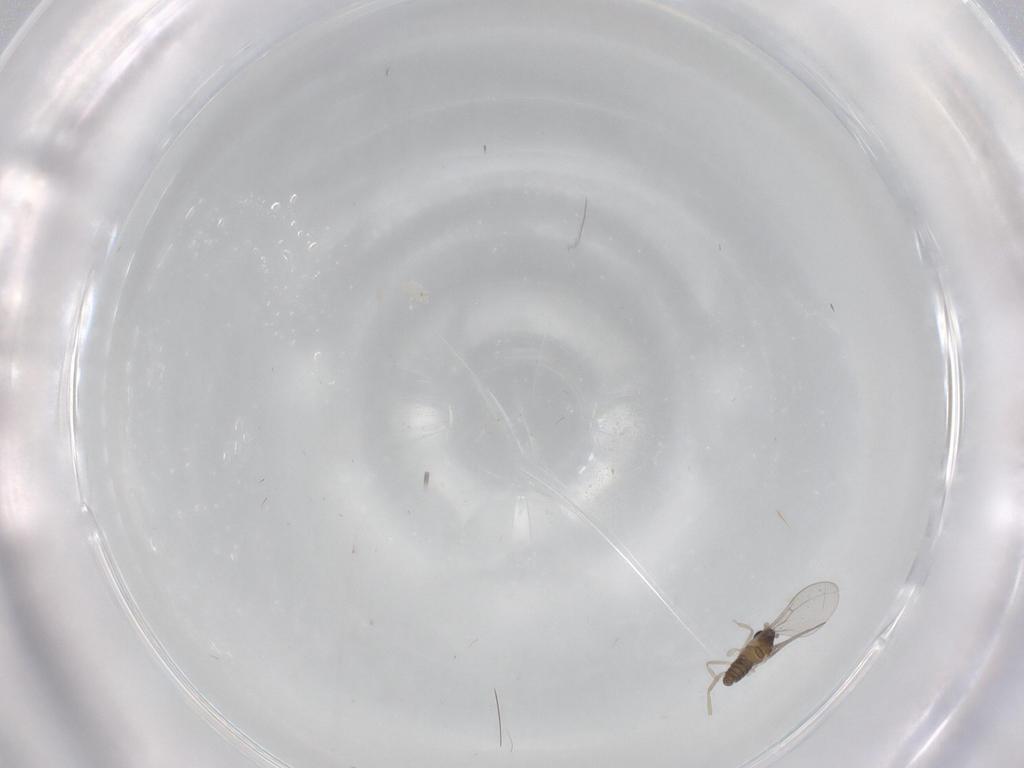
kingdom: Animalia
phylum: Arthropoda
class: Insecta
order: Diptera
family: Cecidomyiidae
